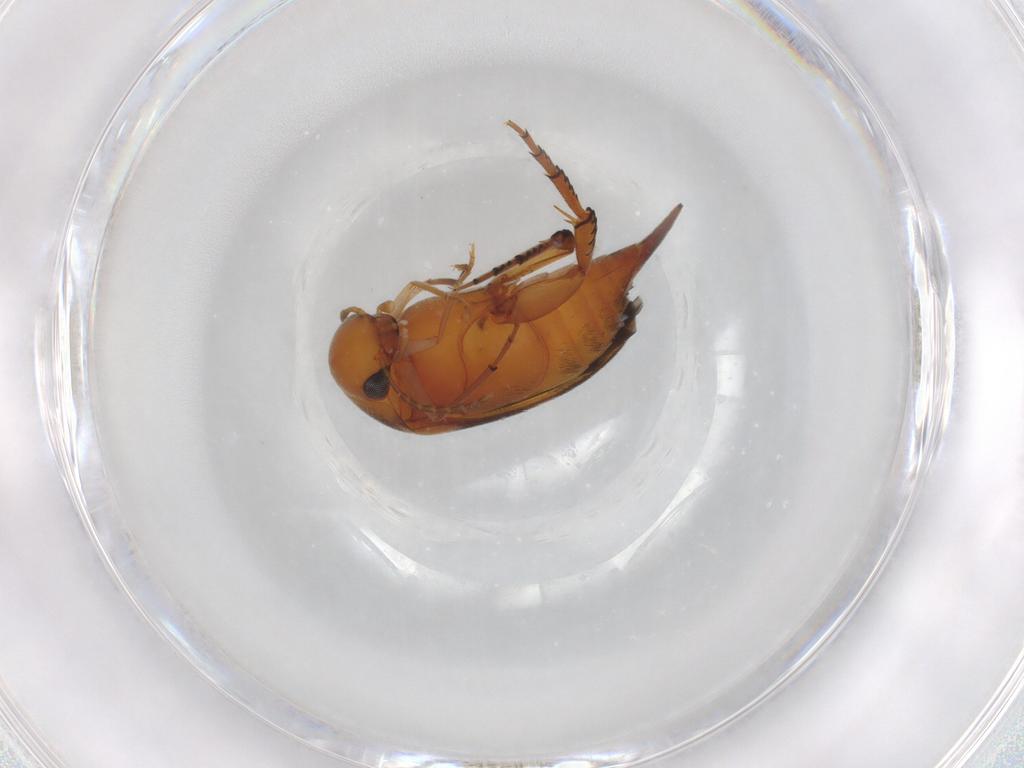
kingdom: Animalia
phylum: Arthropoda
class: Insecta
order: Coleoptera
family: Mordellidae
